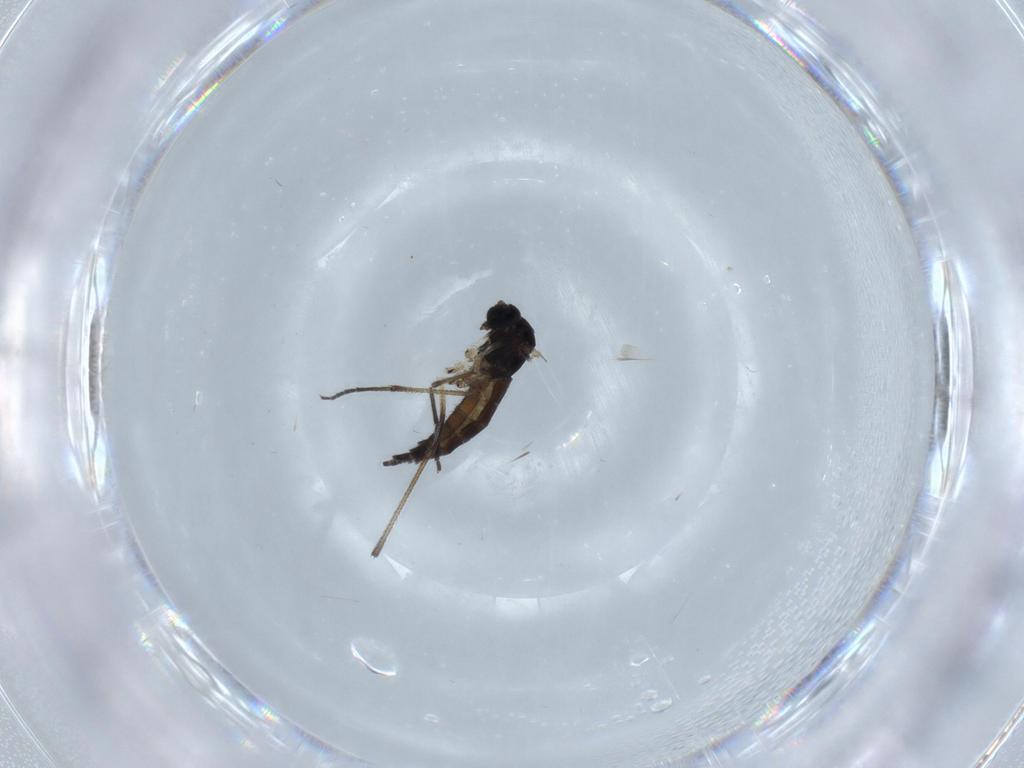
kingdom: Animalia
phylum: Arthropoda
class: Insecta
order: Diptera
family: Sciaridae
